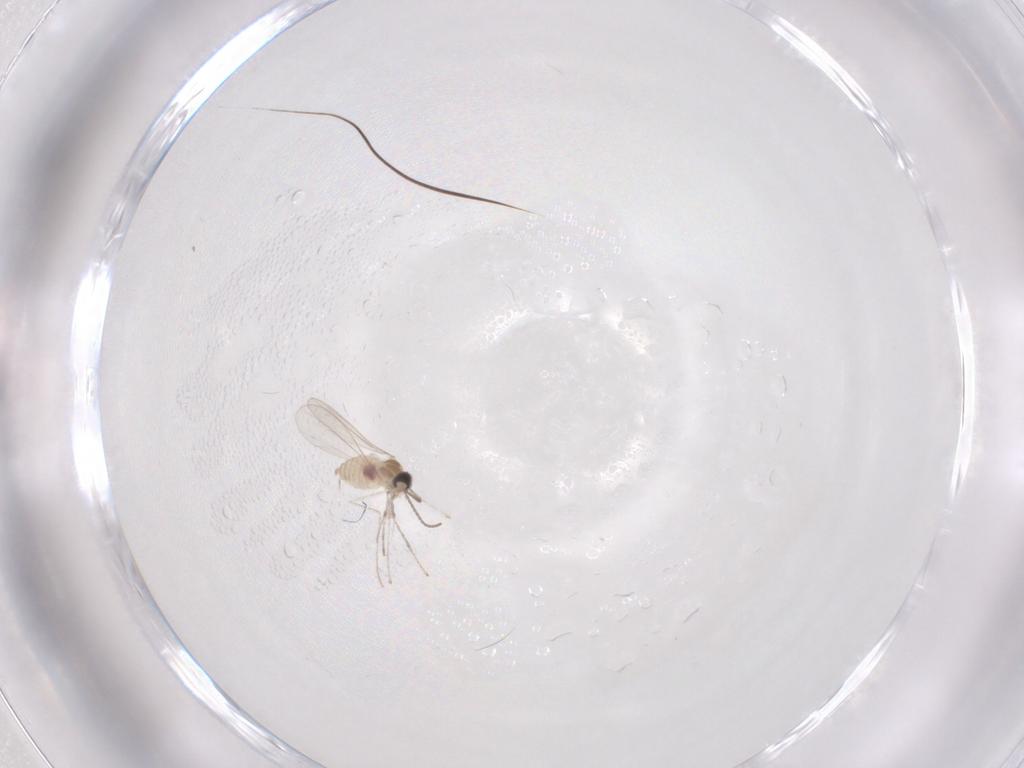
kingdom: Animalia
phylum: Arthropoda
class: Insecta
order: Diptera
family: Cecidomyiidae
